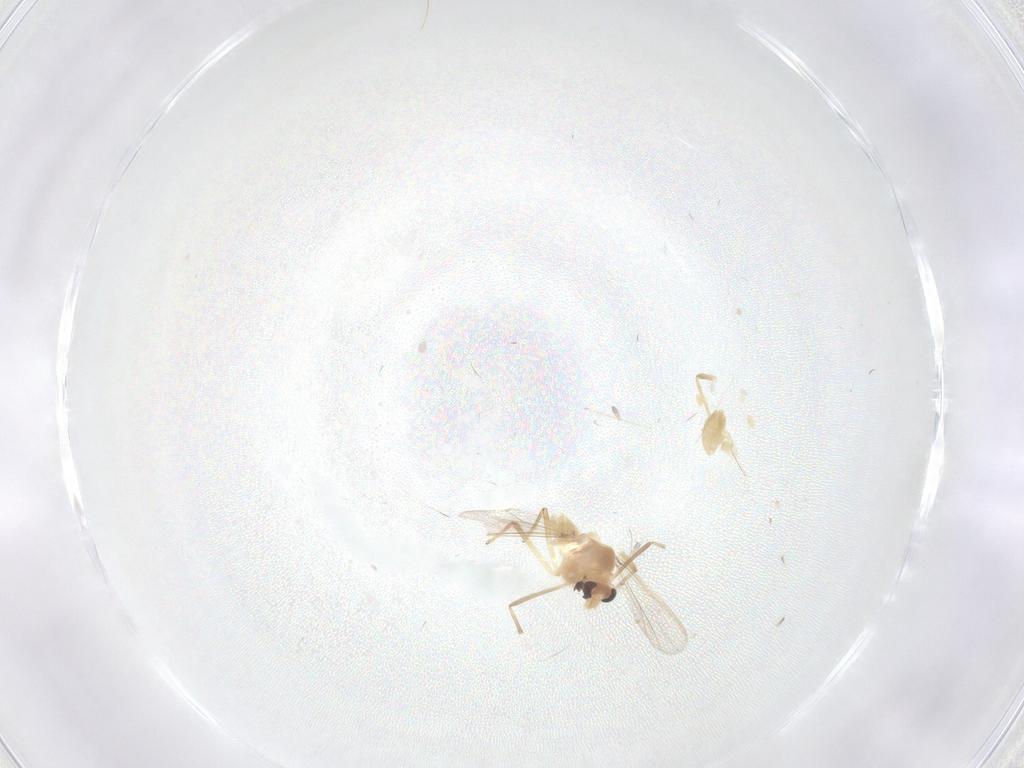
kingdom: Animalia
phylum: Arthropoda
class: Insecta
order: Diptera
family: Chironomidae
